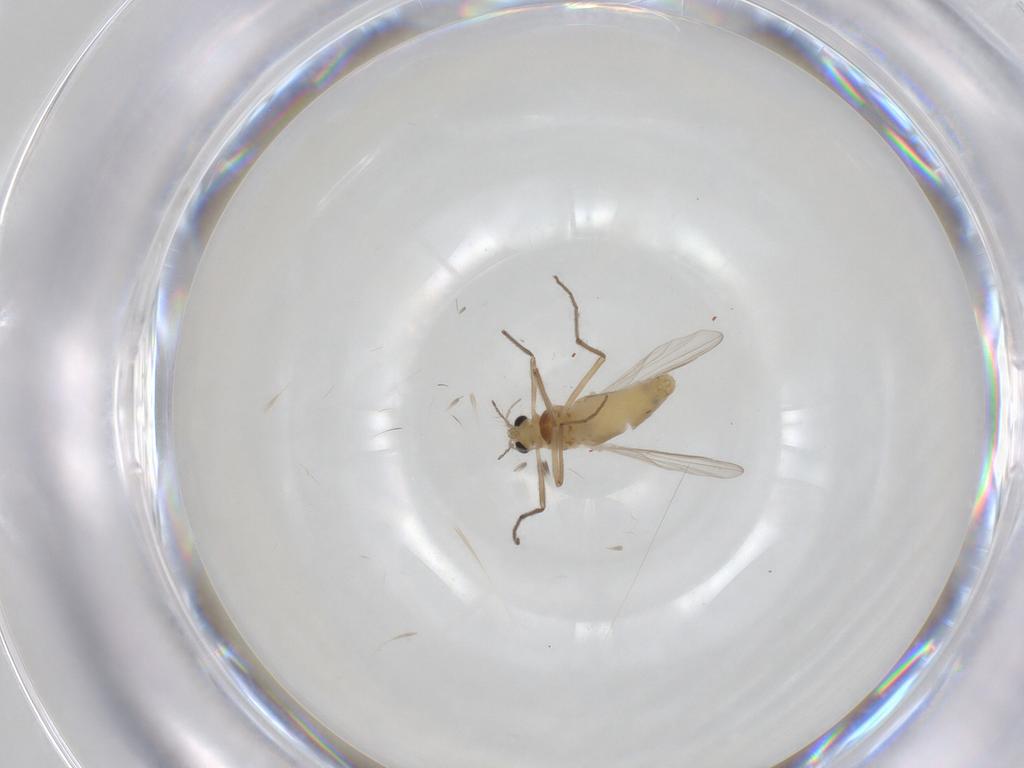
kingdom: Animalia
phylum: Arthropoda
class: Insecta
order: Diptera
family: Chironomidae
